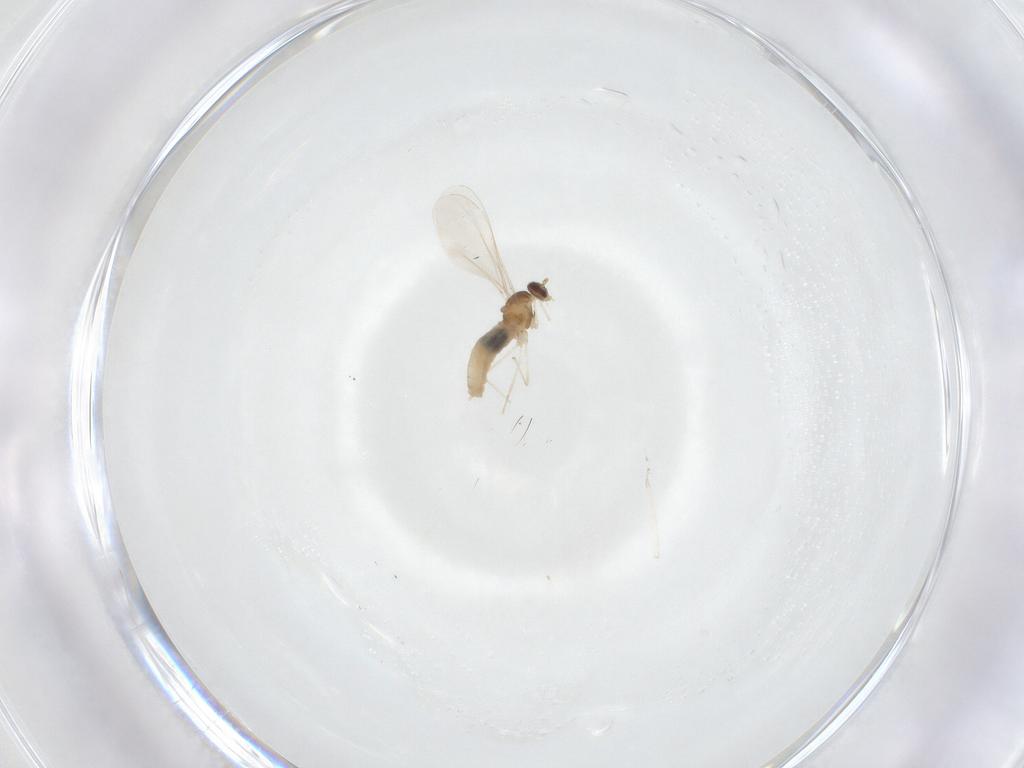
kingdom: Animalia
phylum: Arthropoda
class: Insecta
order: Diptera
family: Cecidomyiidae
